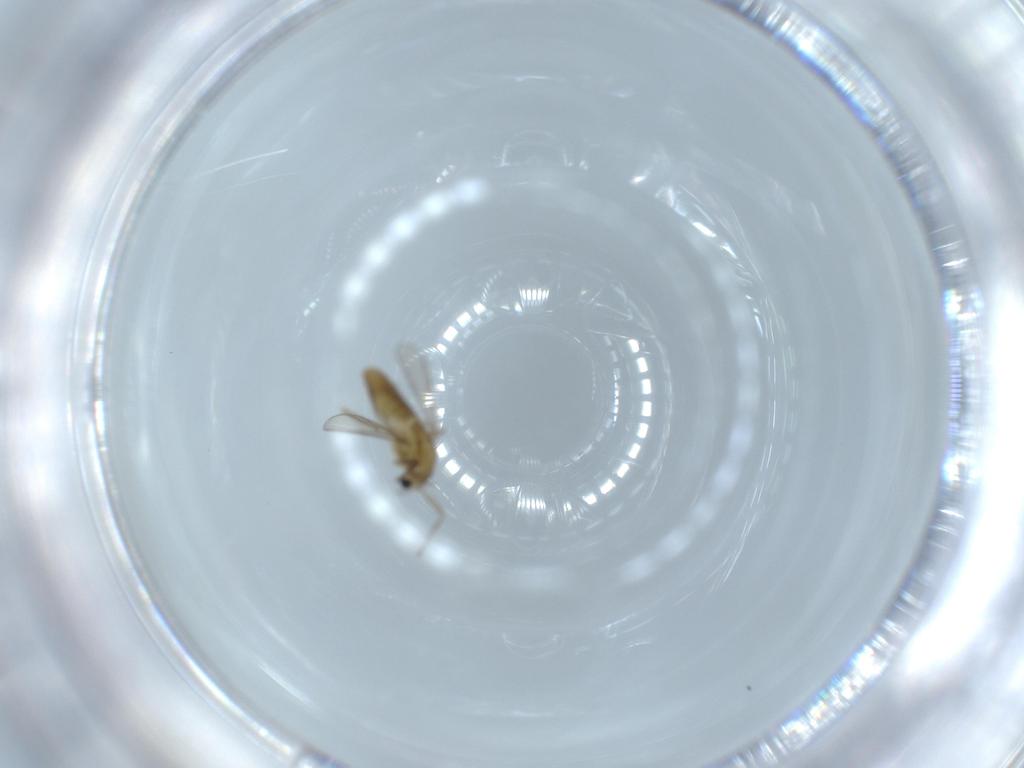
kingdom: Animalia
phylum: Arthropoda
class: Insecta
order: Diptera
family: Chironomidae
